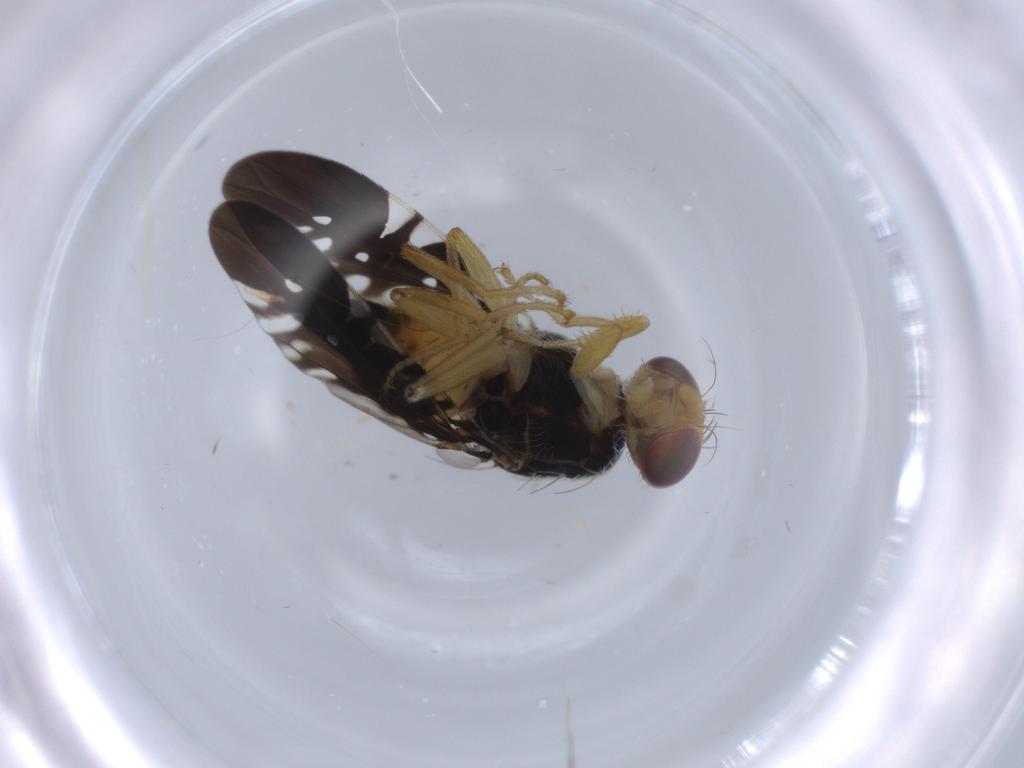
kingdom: Animalia
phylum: Arthropoda
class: Insecta
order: Diptera
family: Tephritidae
